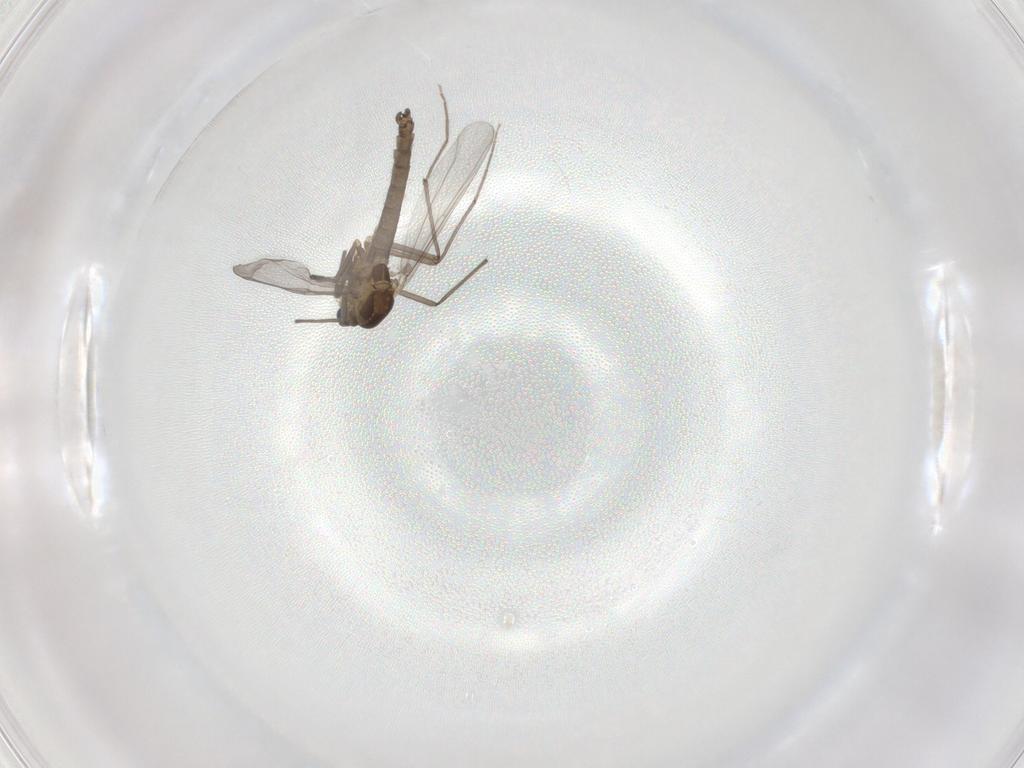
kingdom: Animalia
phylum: Arthropoda
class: Insecta
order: Diptera
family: Chironomidae
